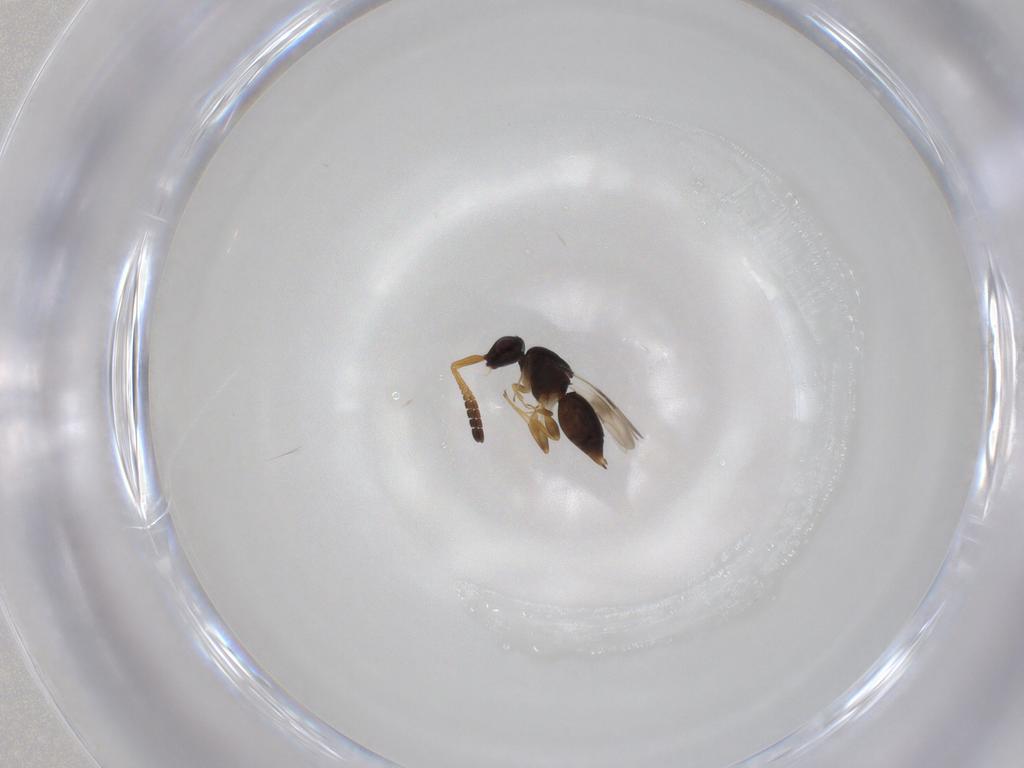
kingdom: Animalia
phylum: Arthropoda
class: Insecta
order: Hymenoptera
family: Ceraphronidae
